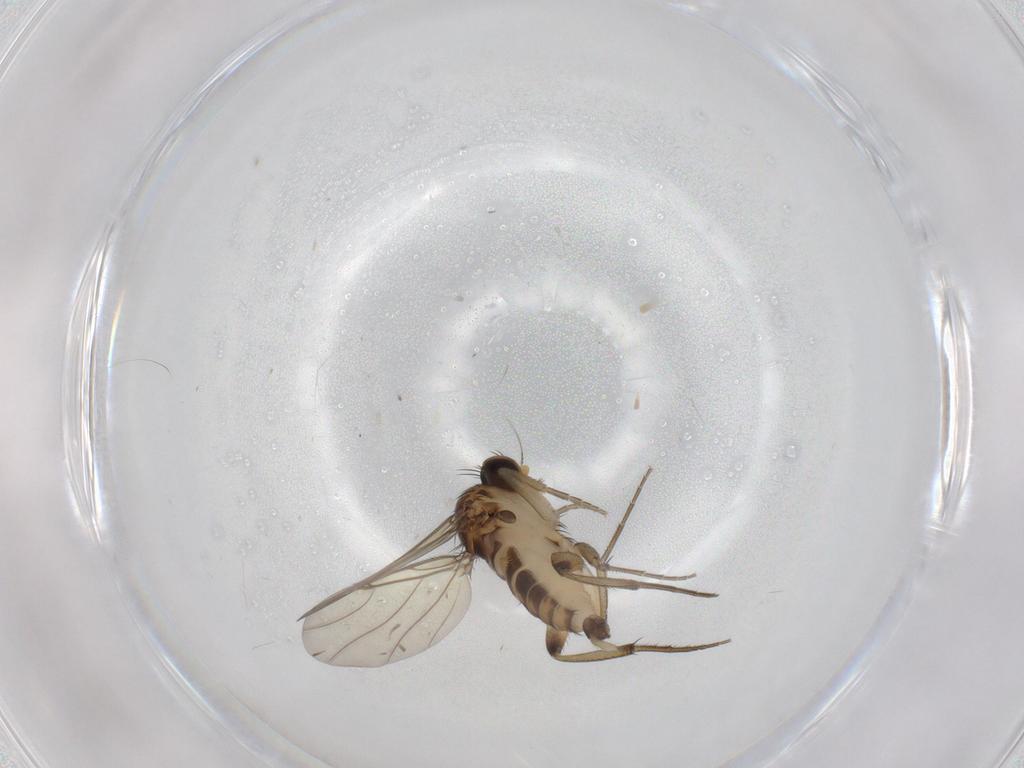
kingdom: Animalia
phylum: Arthropoda
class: Insecta
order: Diptera
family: Phoridae
